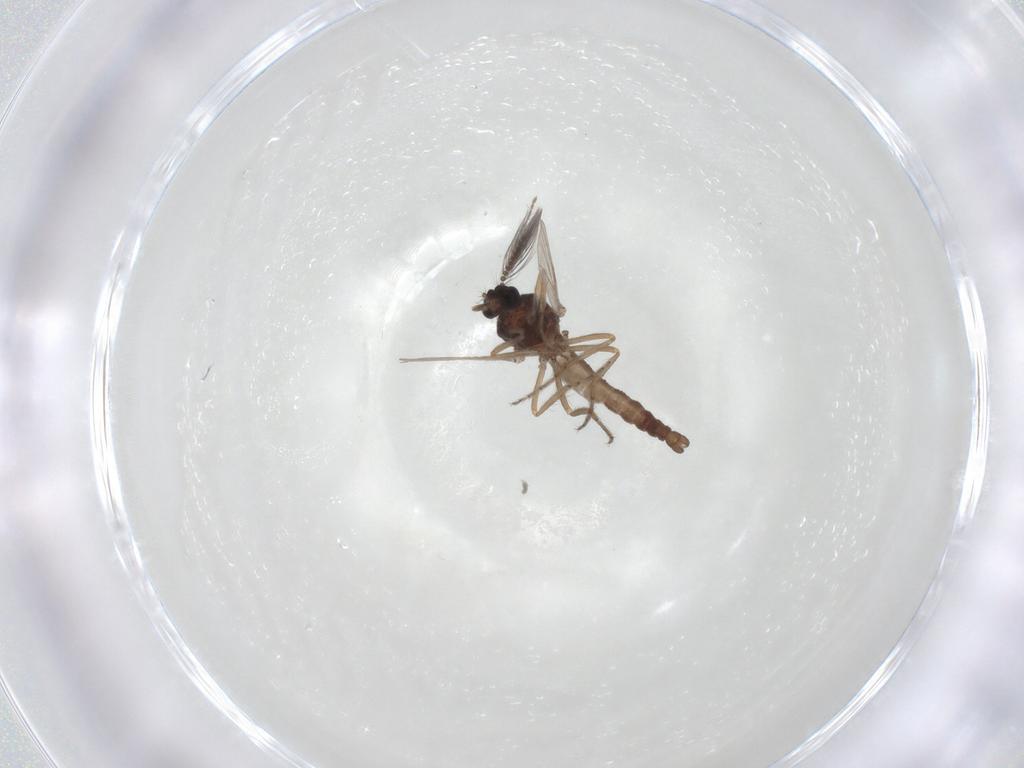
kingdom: Animalia
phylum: Arthropoda
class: Insecta
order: Diptera
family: Ceratopogonidae
